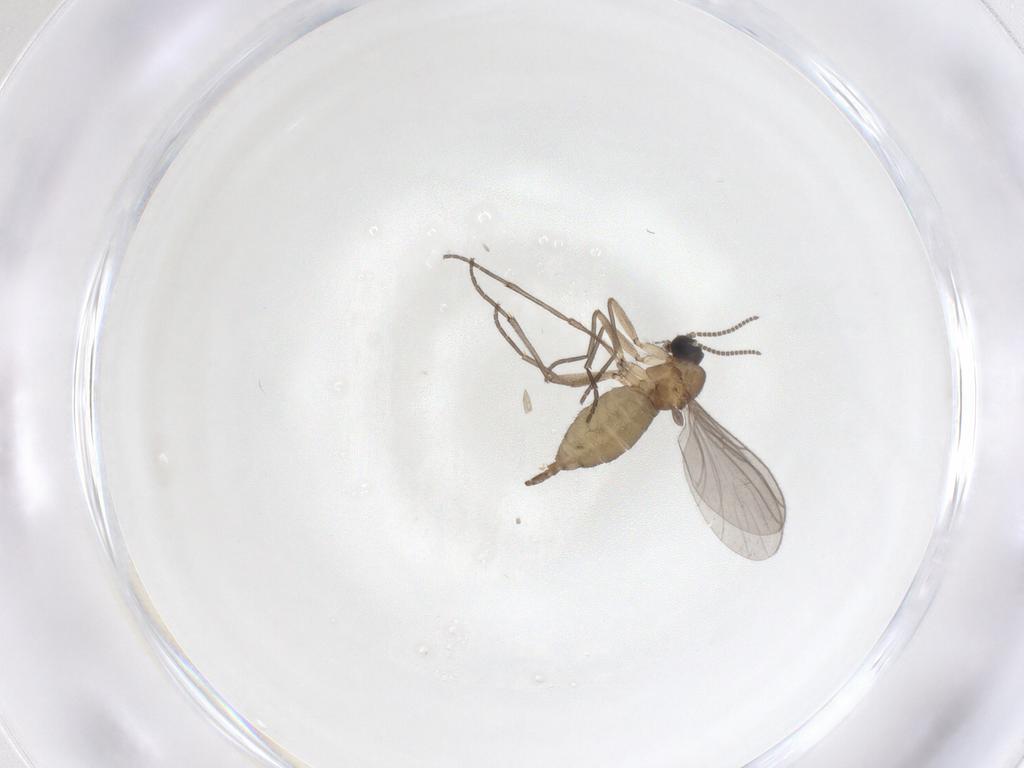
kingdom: Animalia
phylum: Arthropoda
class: Insecta
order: Diptera
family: Sciaridae
